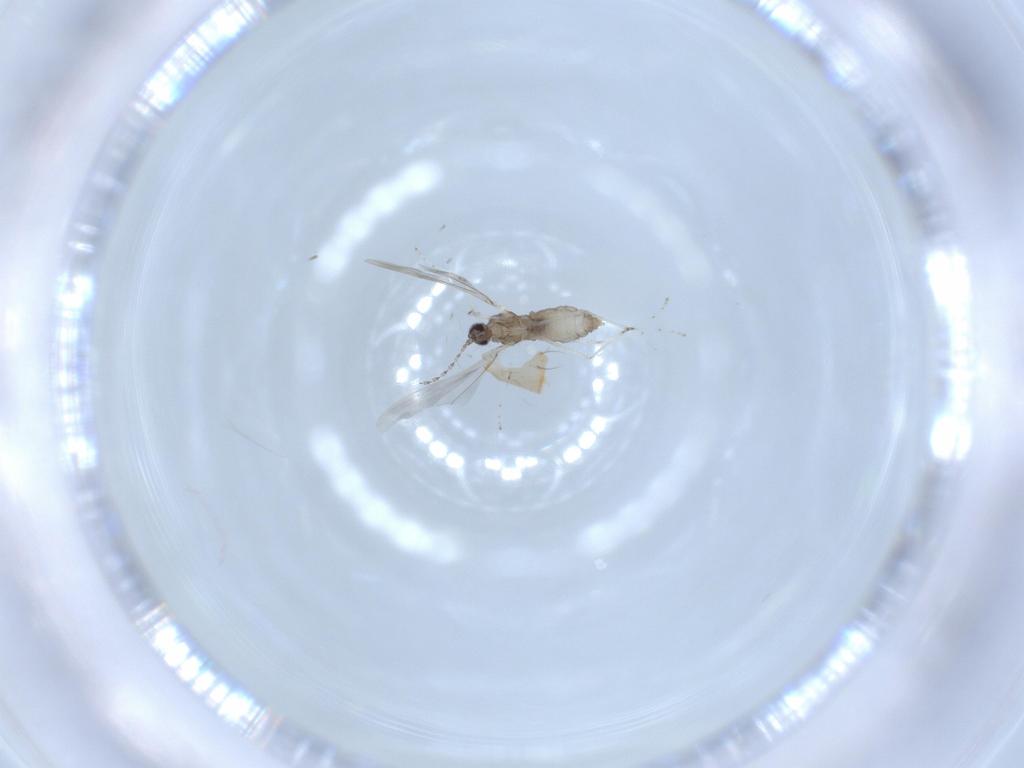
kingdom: Animalia
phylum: Arthropoda
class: Insecta
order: Diptera
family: Cecidomyiidae
